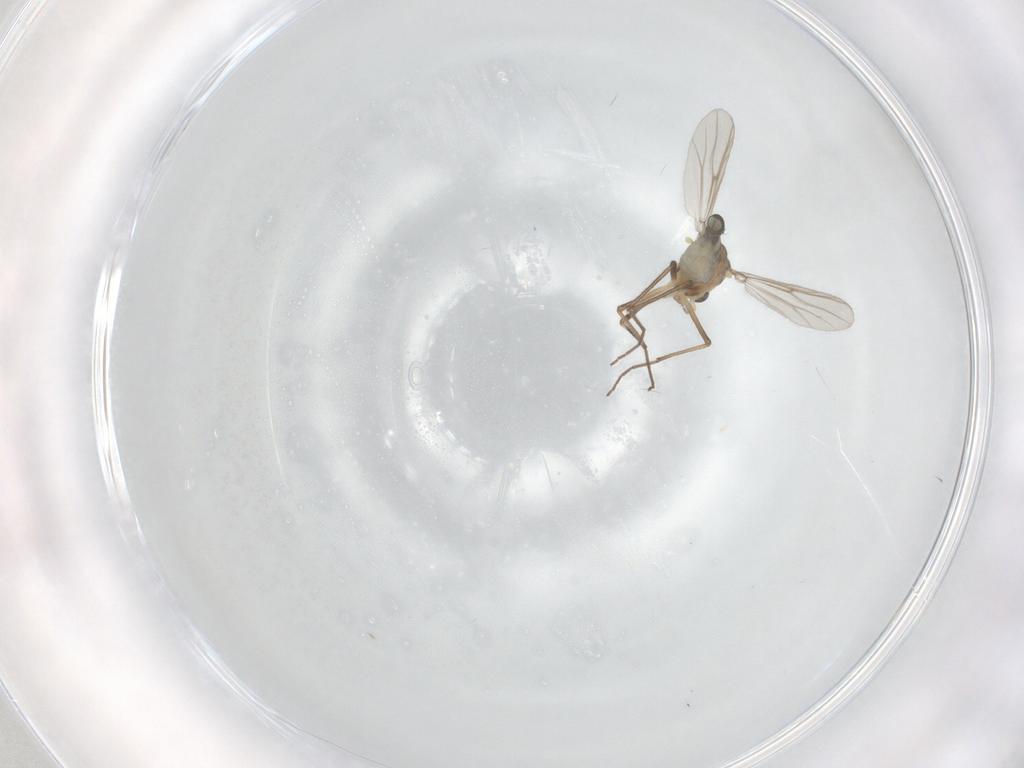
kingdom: Animalia
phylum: Arthropoda
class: Insecta
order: Diptera
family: Chironomidae
